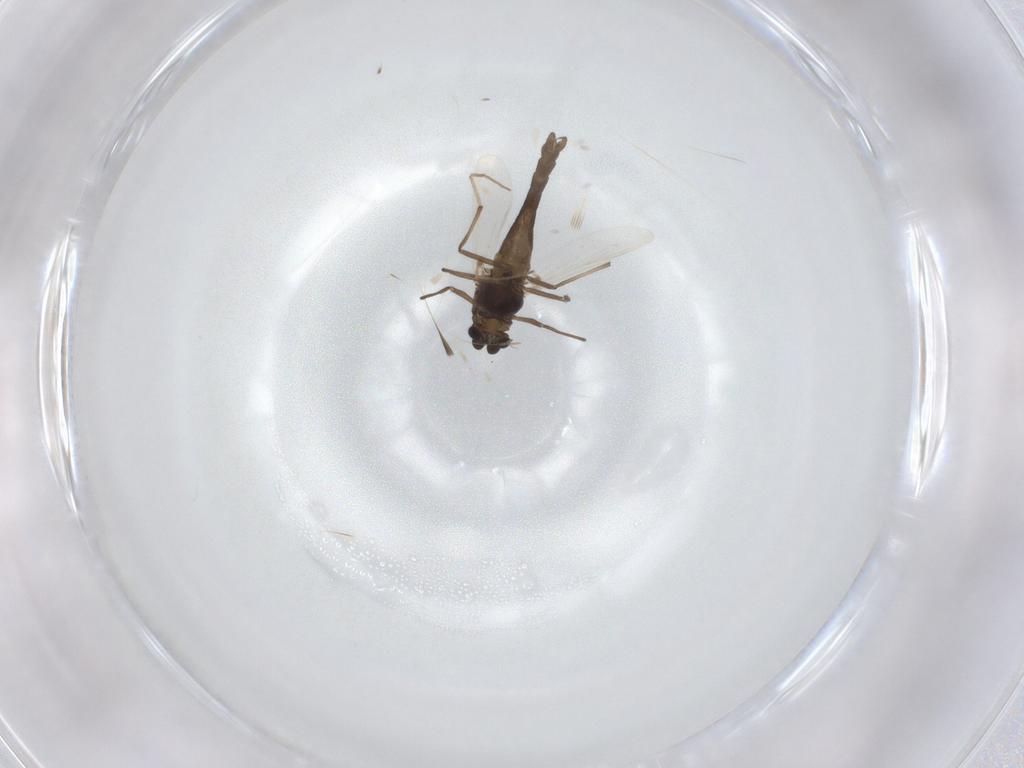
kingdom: Animalia
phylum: Arthropoda
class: Insecta
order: Diptera
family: Chironomidae
